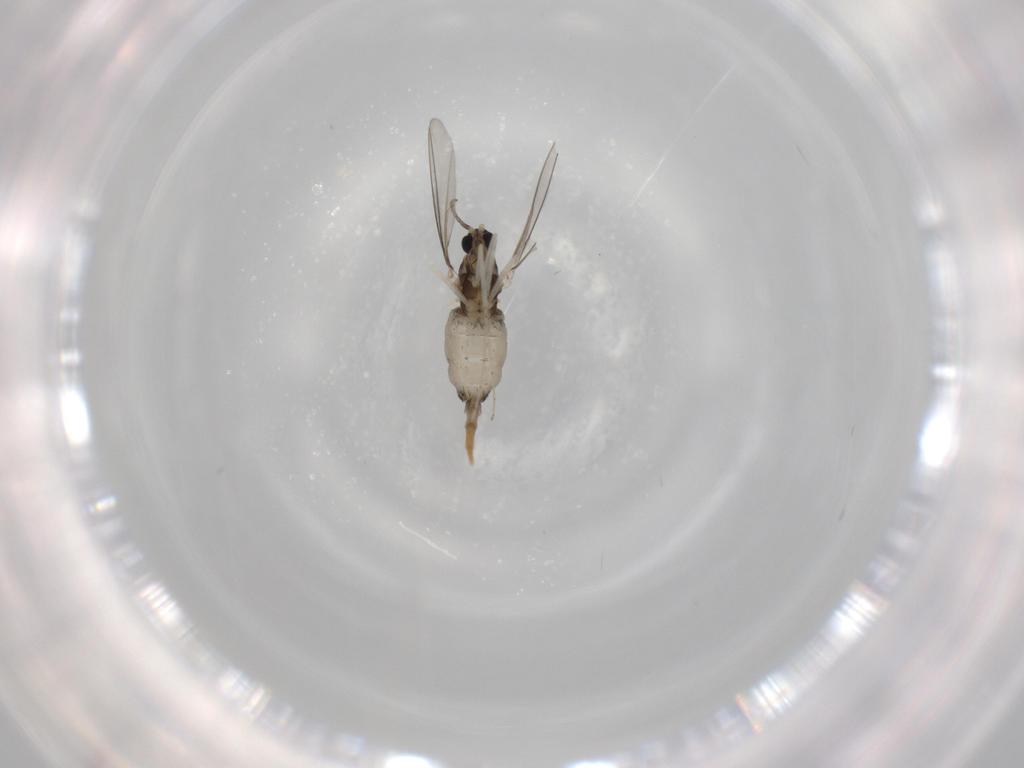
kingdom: Animalia
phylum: Arthropoda
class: Insecta
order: Diptera
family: Cecidomyiidae
